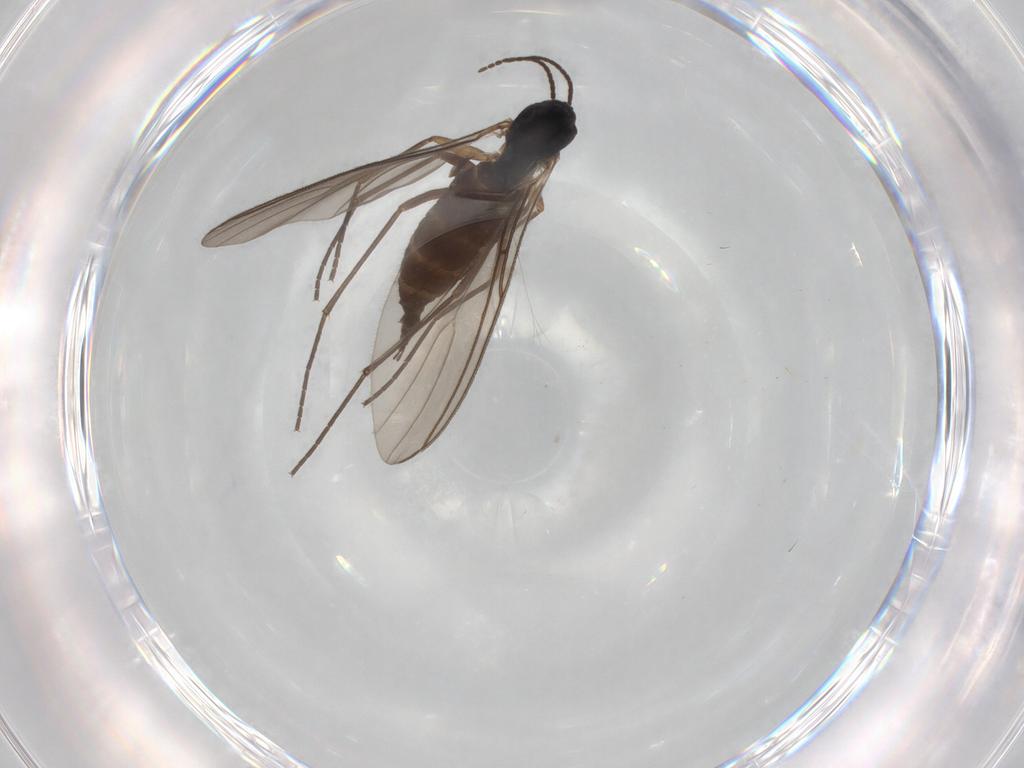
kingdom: Animalia
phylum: Arthropoda
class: Insecta
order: Diptera
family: Sciaridae
